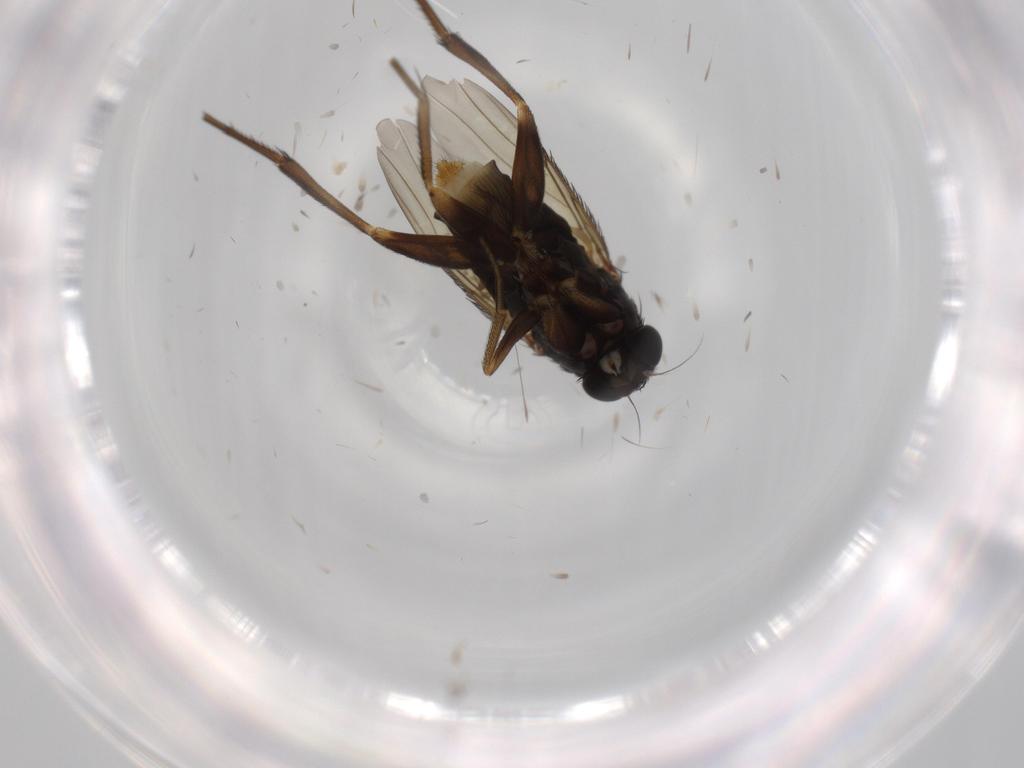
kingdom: Animalia
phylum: Arthropoda
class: Insecta
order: Diptera
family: Phoridae
